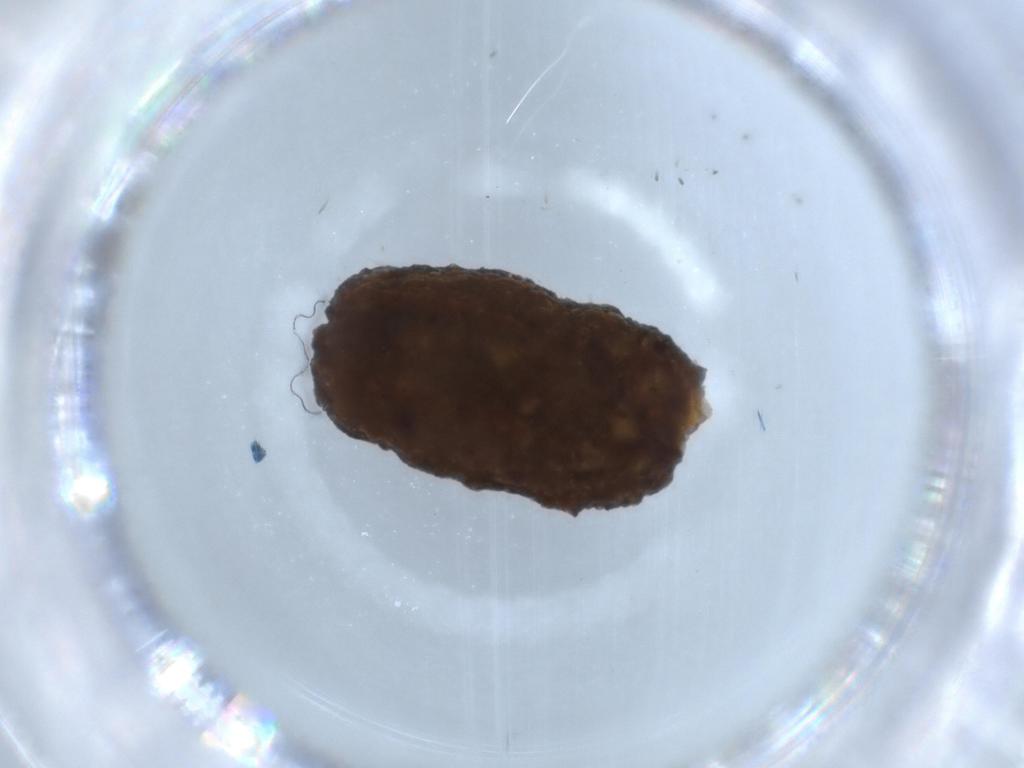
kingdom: Animalia
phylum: Arthropoda
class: Insecta
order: Coleoptera
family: Coccinellidae
